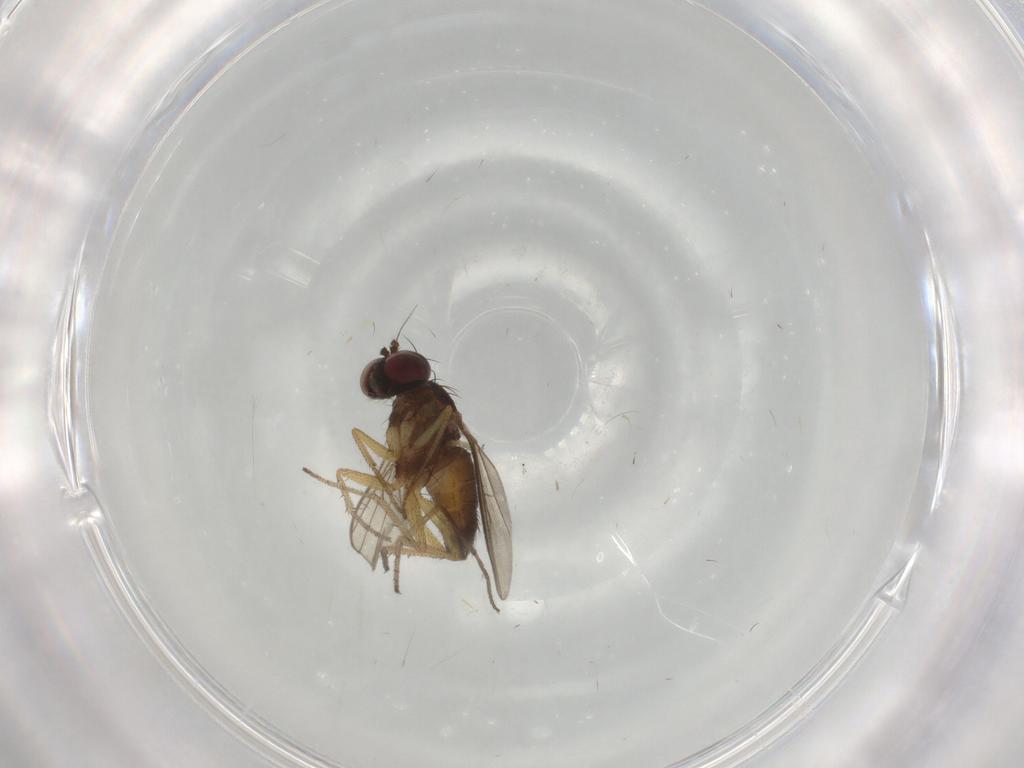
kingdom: Animalia
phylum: Arthropoda
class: Insecta
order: Diptera
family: Dolichopodidae
